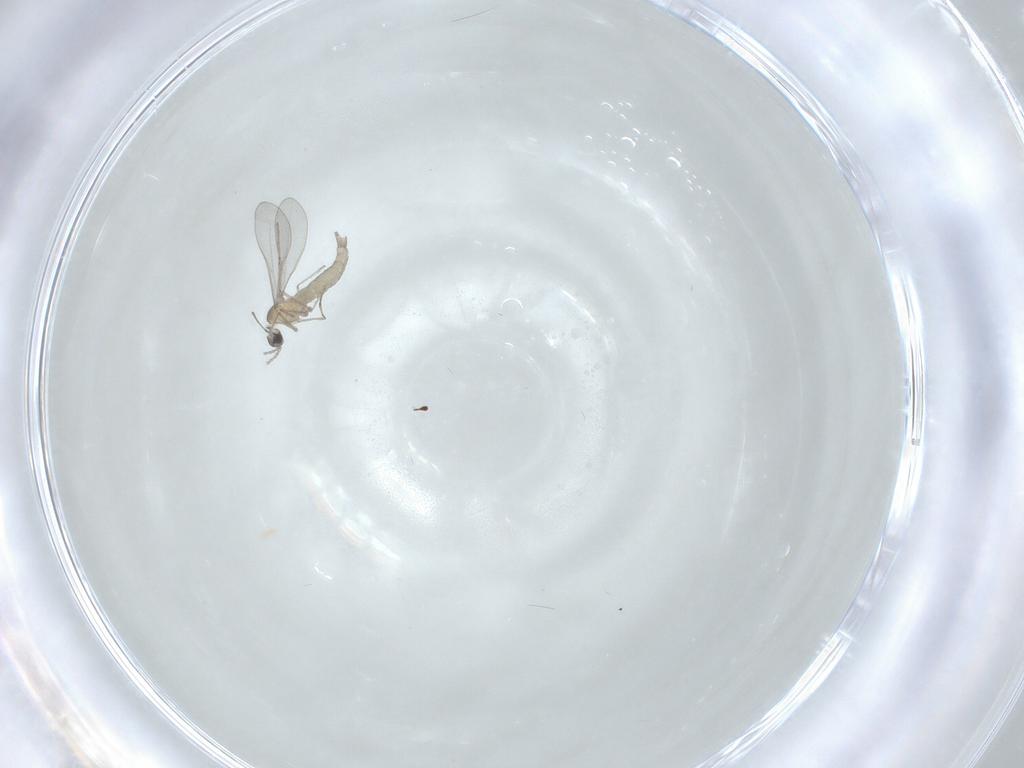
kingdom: Animalia
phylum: Arthropoda
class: Insecta
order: Diptera
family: Cecidomyiidae
